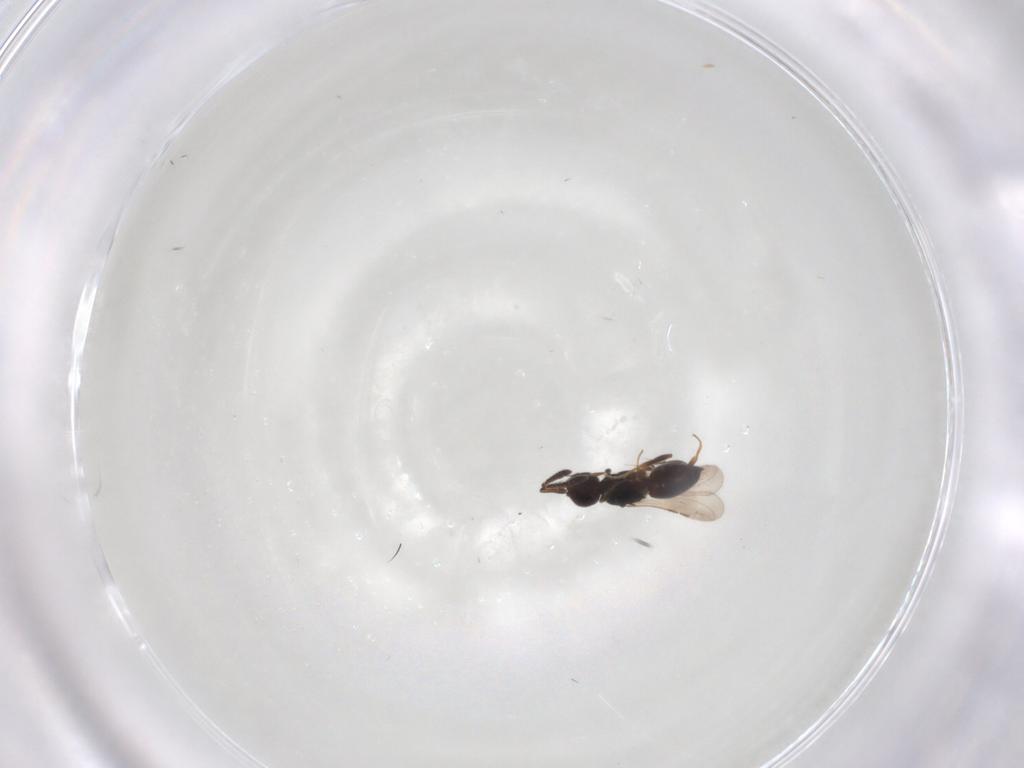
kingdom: Animalia
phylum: Arthropoda
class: Insecta
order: Hymenoptera
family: Ceraphronidae
